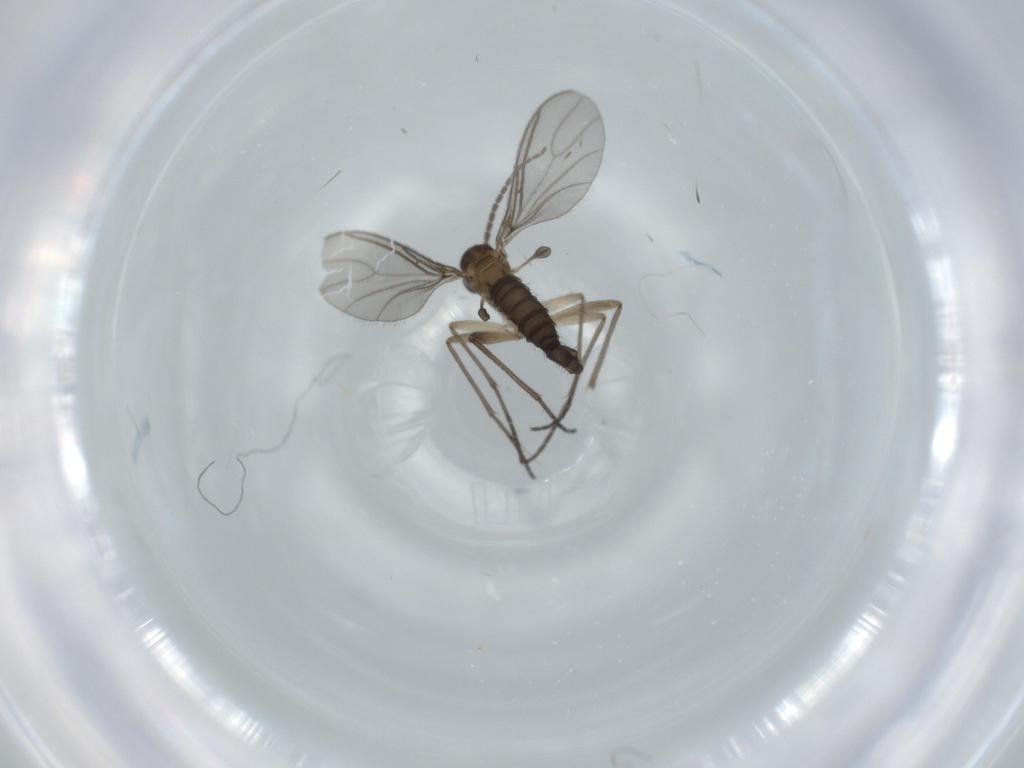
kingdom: Animalia
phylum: Arthropoda
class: Insecta
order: Diptera
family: Sciaridae
